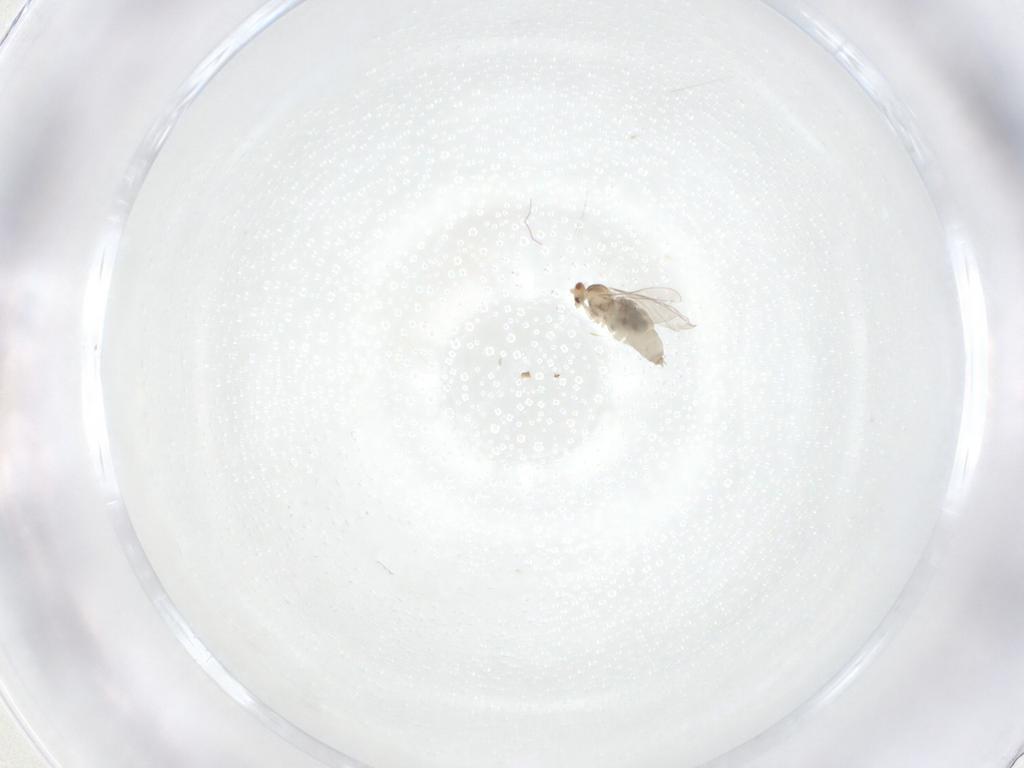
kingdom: Animalia
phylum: Arthropoda
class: Insecta
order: Diptera
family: Cecidomyiidae
